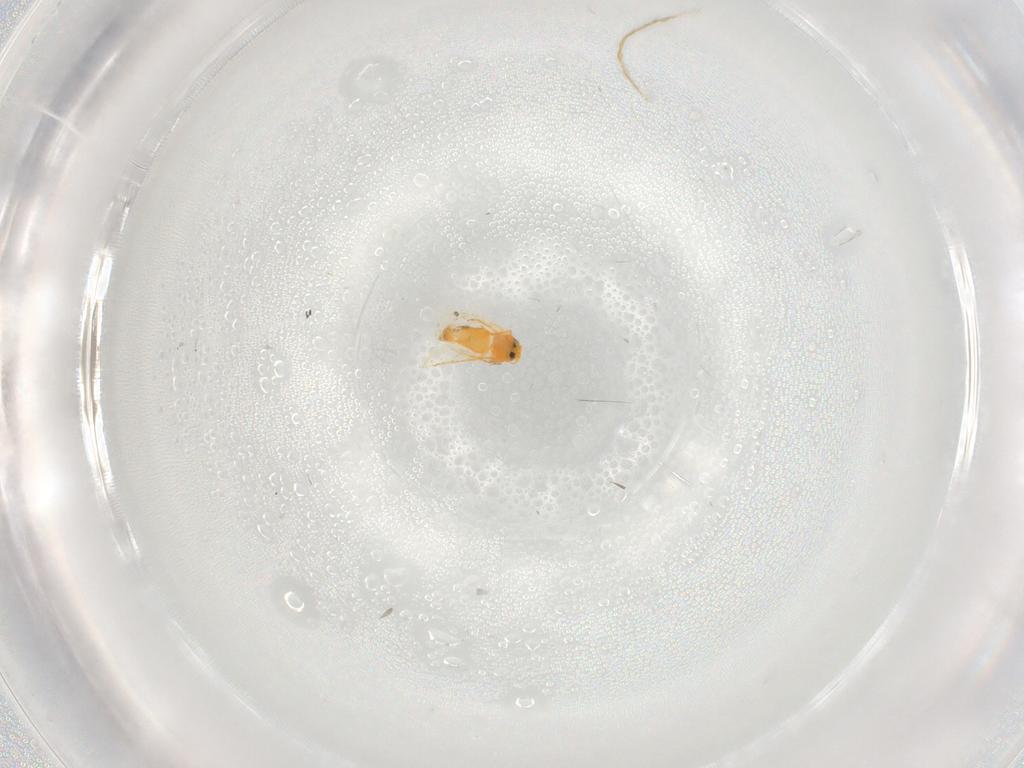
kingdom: Animalia
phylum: Arthropoda
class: Insecta
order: Hemiptera
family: Aleyrodidae
